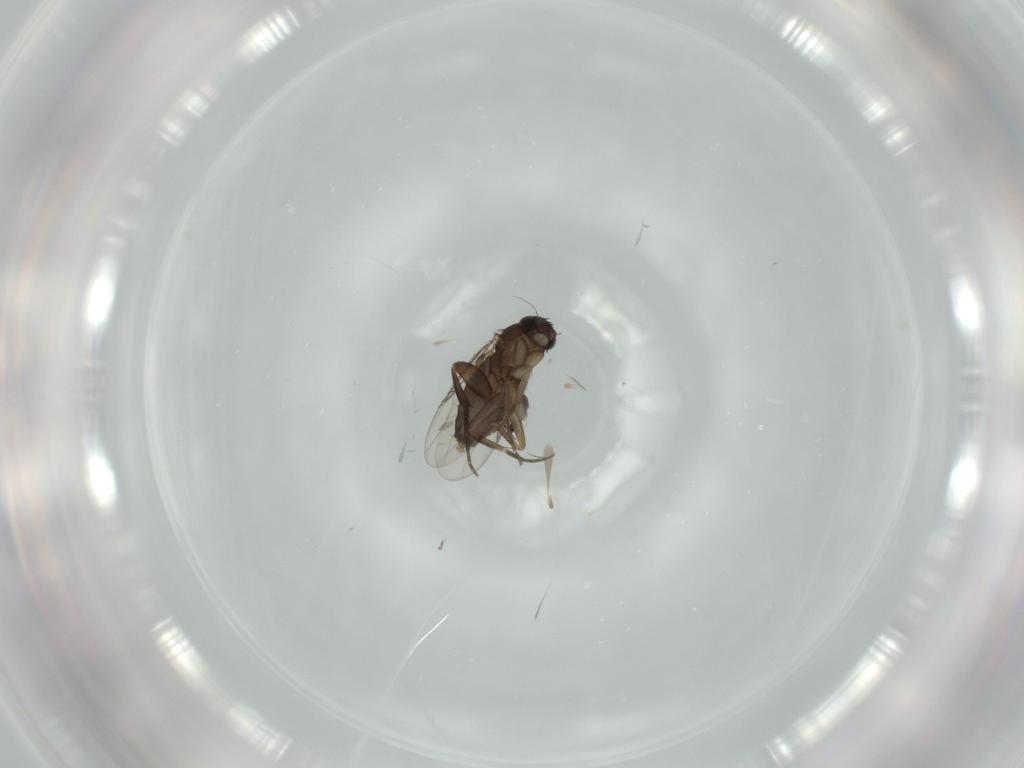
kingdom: Animalia
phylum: Arthropoda
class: Insecta
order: Diptera
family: Phoridae
